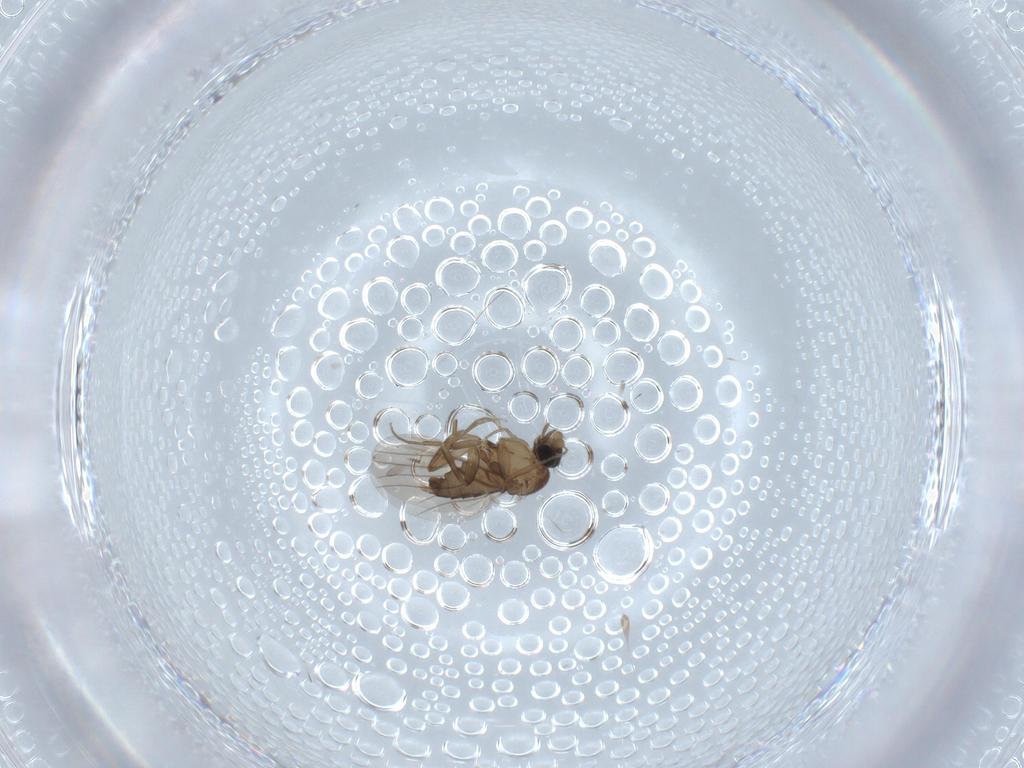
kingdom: Animalia
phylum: Arthropoda
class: Insecta
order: Diptera
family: Phoridae
